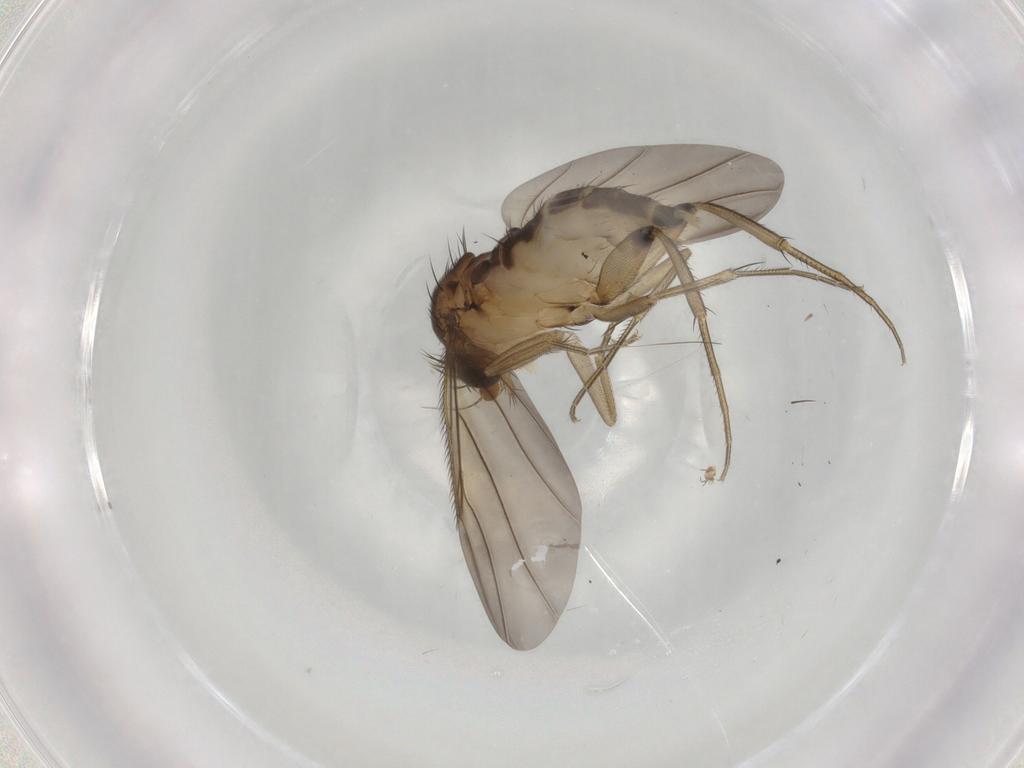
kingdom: Animalia
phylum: Arthropoda
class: Insecta
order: Diptera
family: Phoridae
